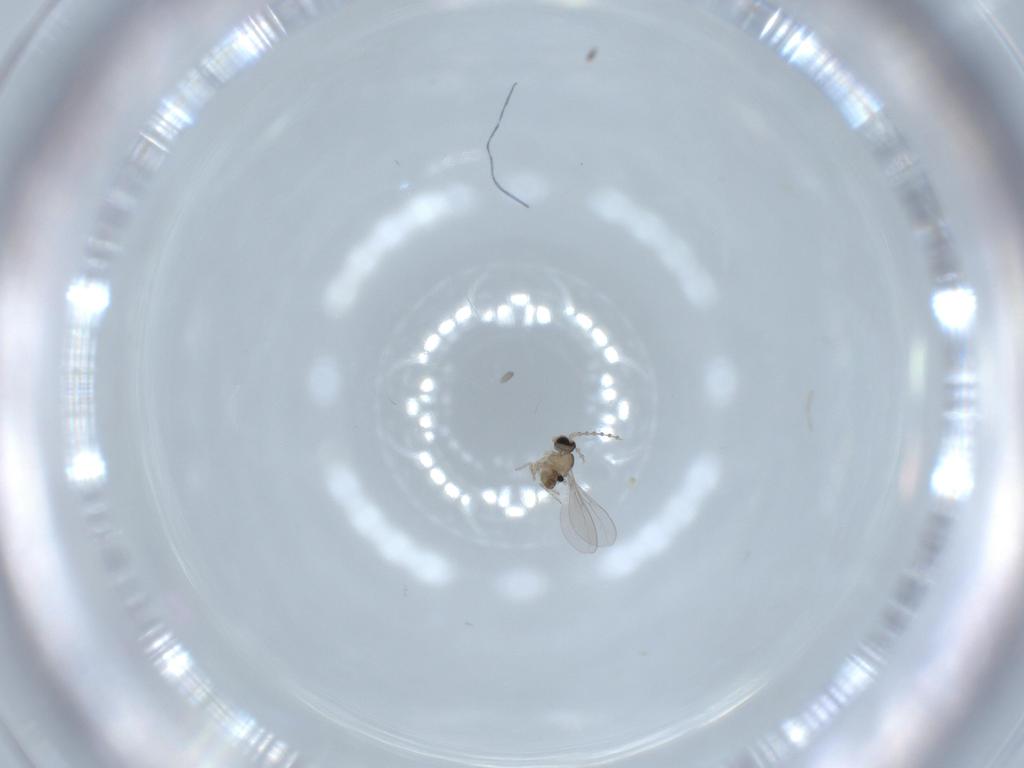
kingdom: Animalia
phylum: Arthropoda
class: Insecta
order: Diptera
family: Sciaridae
